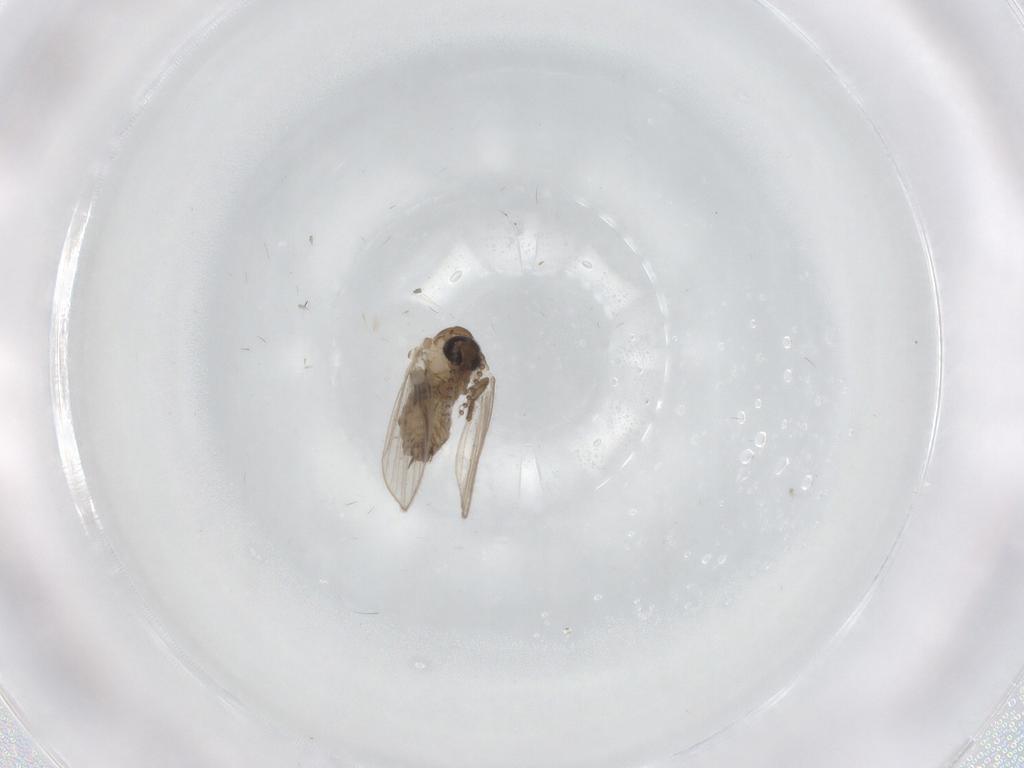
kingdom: Animalia
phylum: Arthropoda
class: Insecta
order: Diptera
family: Psychodidae
